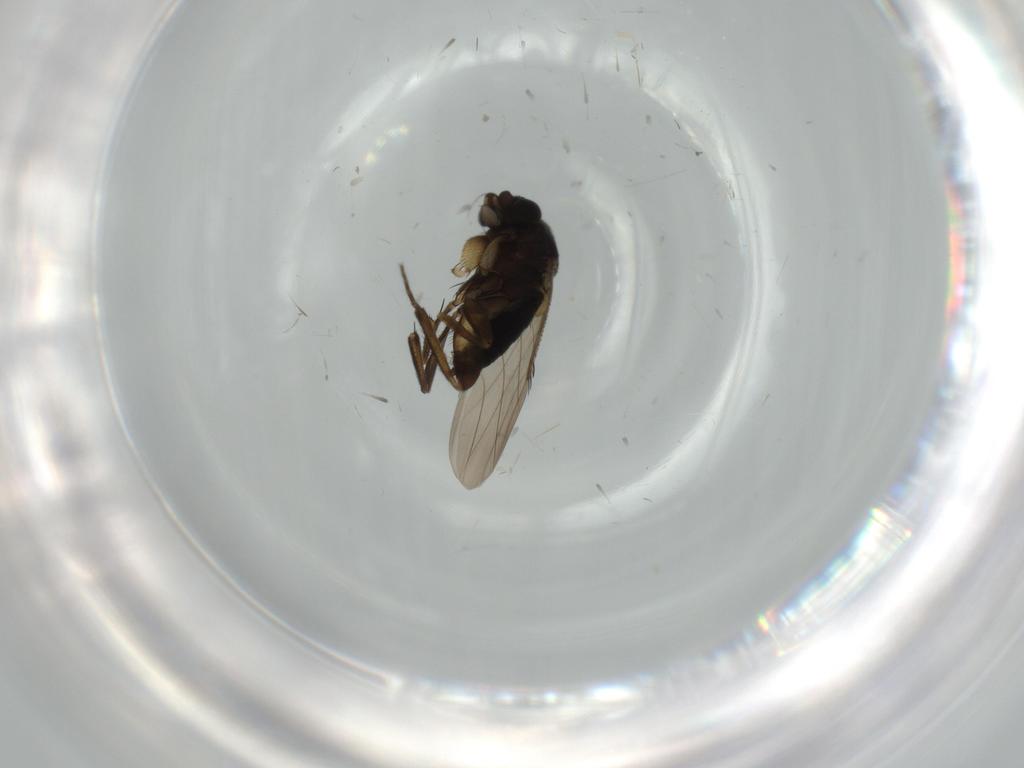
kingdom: Animalia
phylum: Arthropoda
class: Insecta
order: Diptera
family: Ceratopogonidae
